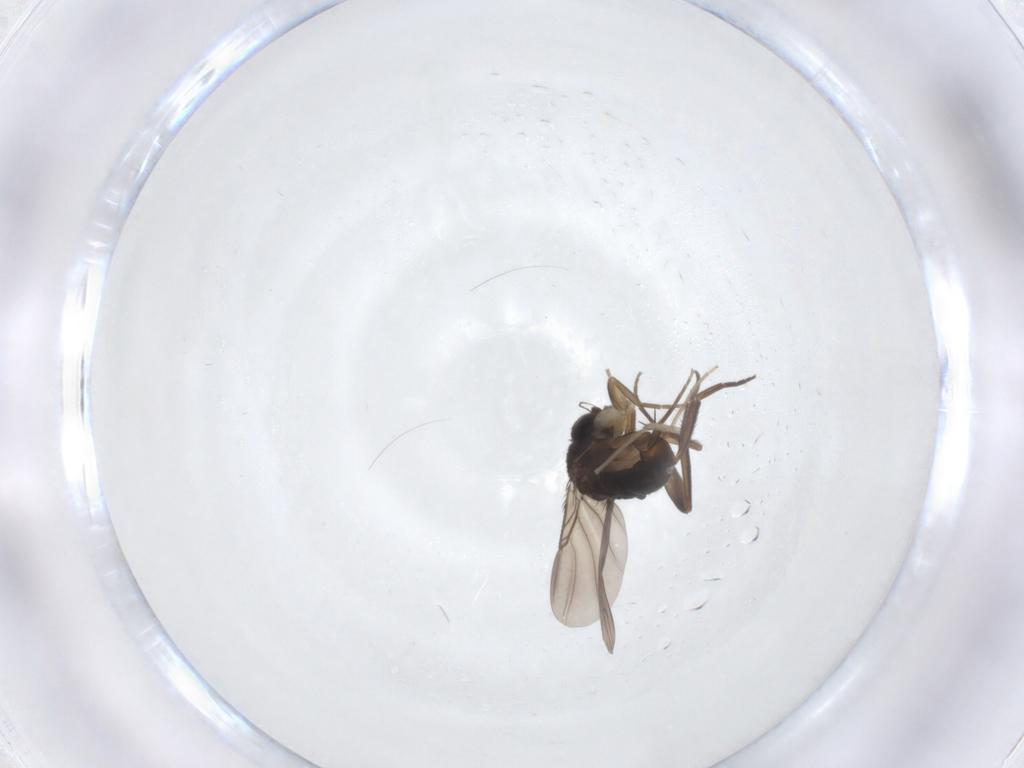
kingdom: Animalia
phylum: Arthropoda
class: Insecta
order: Diptera
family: Phoridae
